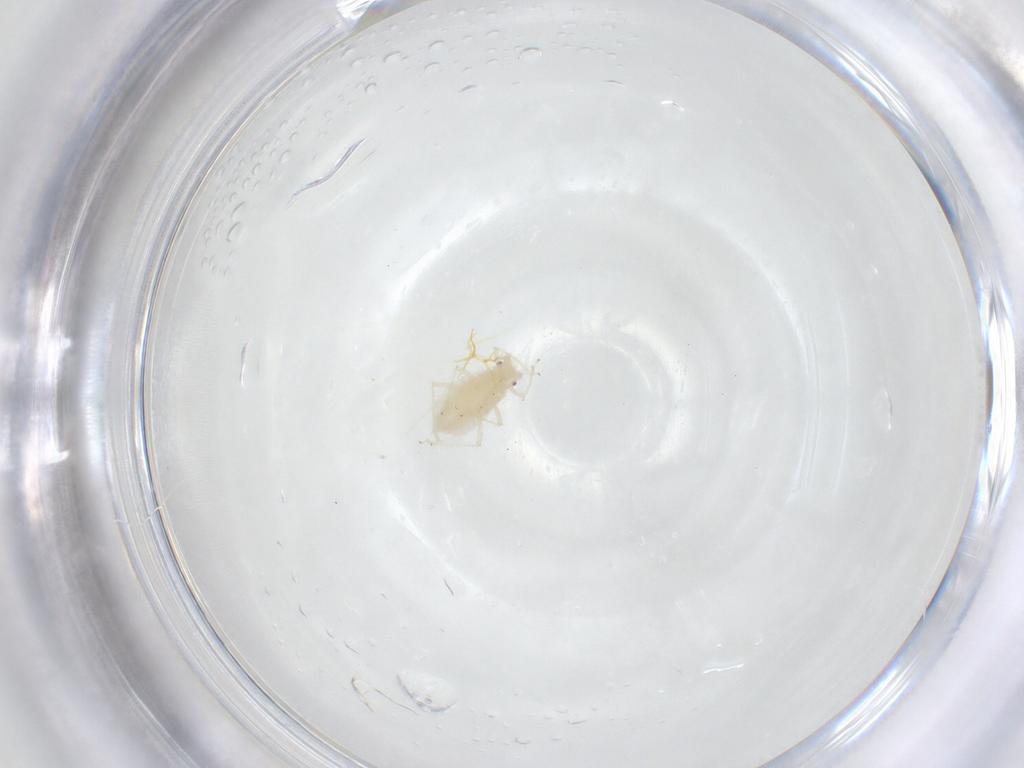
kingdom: Animalia
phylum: Arthropoda
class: Insecta
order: Hemiptera
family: Aphididae
